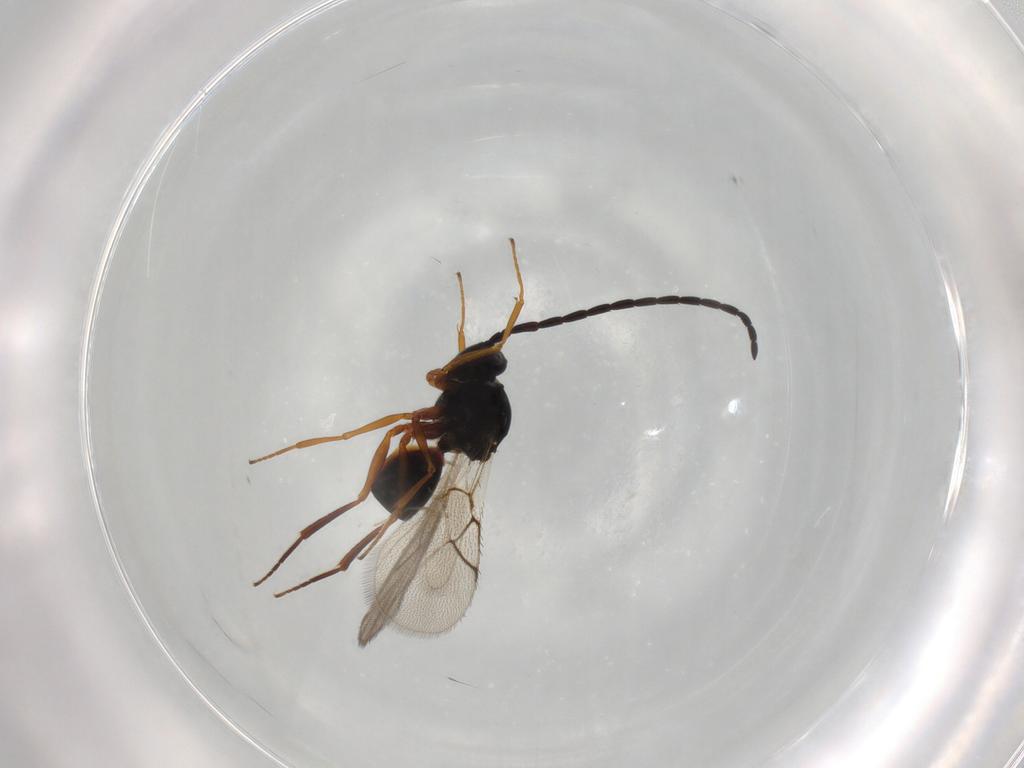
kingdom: Animalia
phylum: Arthropoda
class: Insecta
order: Hymenoptera
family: Figitidae
